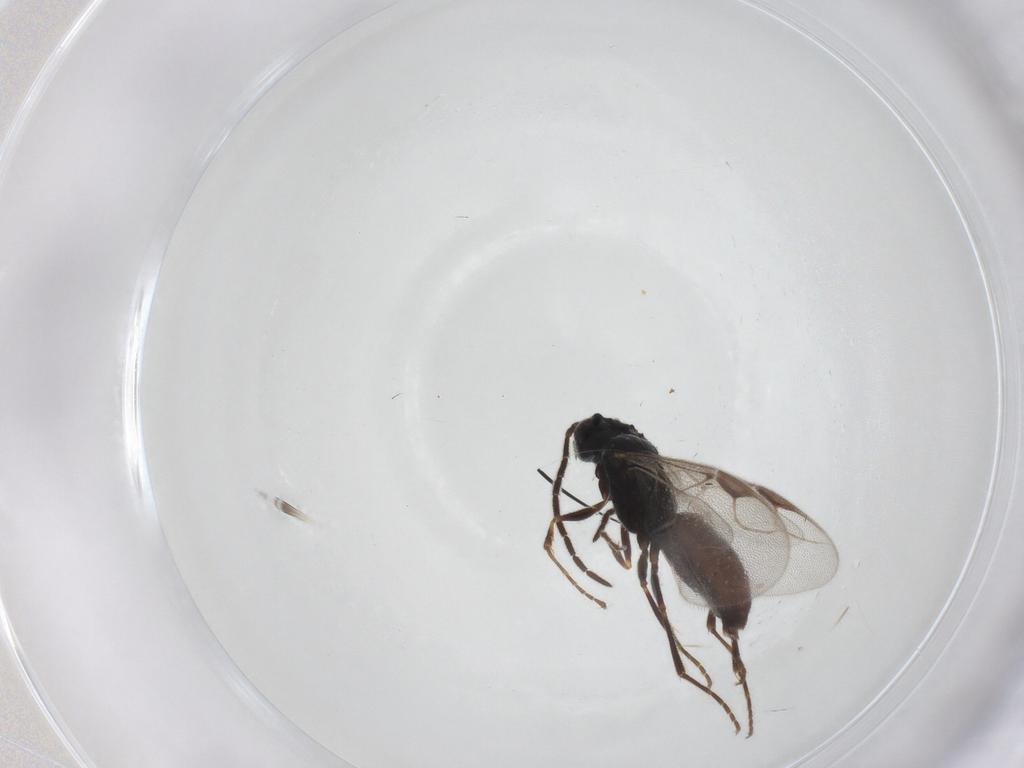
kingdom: Animalia
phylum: Arthropoda
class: Insecta
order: Hymenoptera
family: Dryinidae
